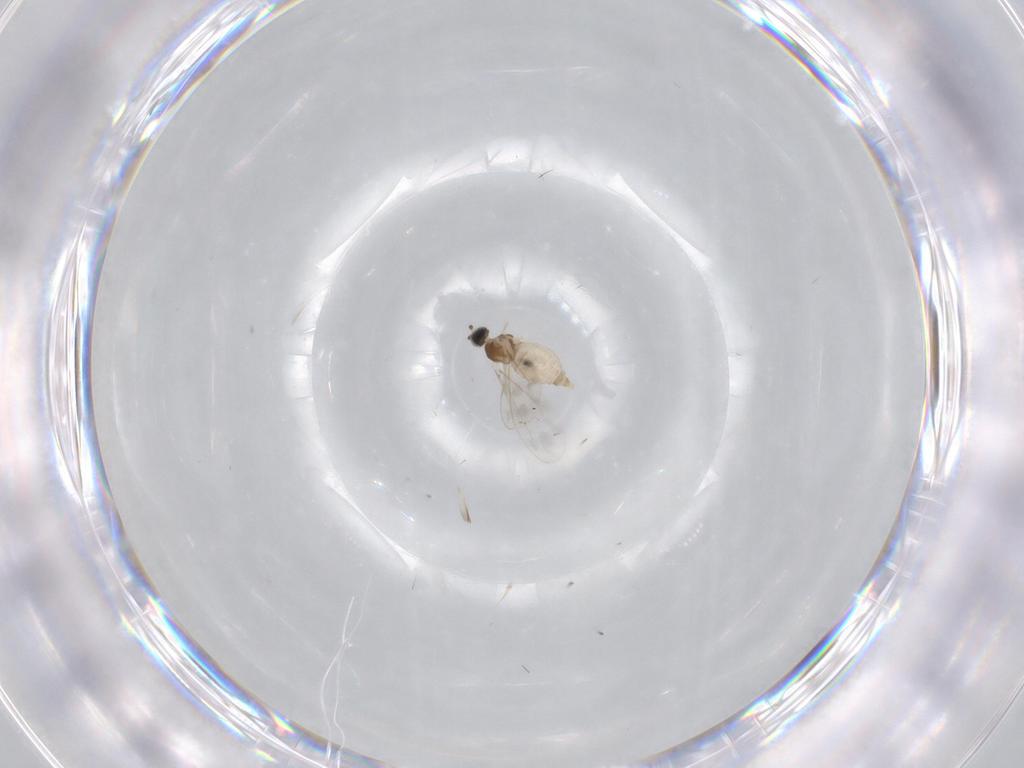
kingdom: Animalia
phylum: Arthropoda
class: Insecta
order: Diptera
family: Cecidomyiidae
